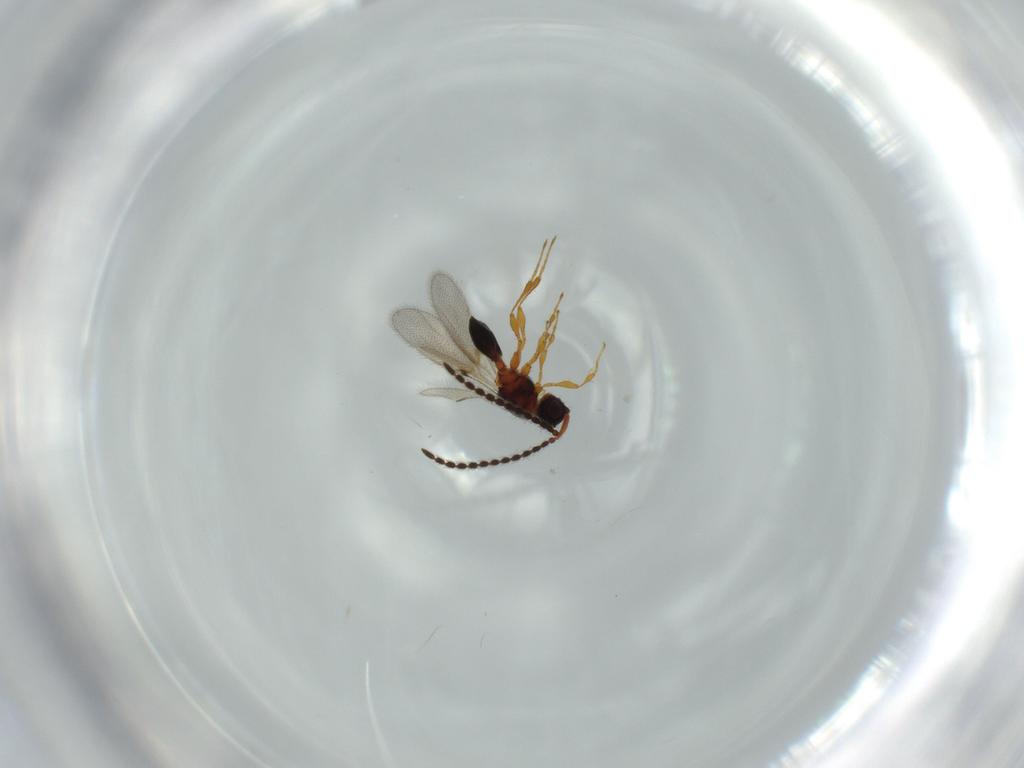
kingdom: Animalia
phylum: Arthropoda
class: Insecta
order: Hymenoptera
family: Diapriidae
